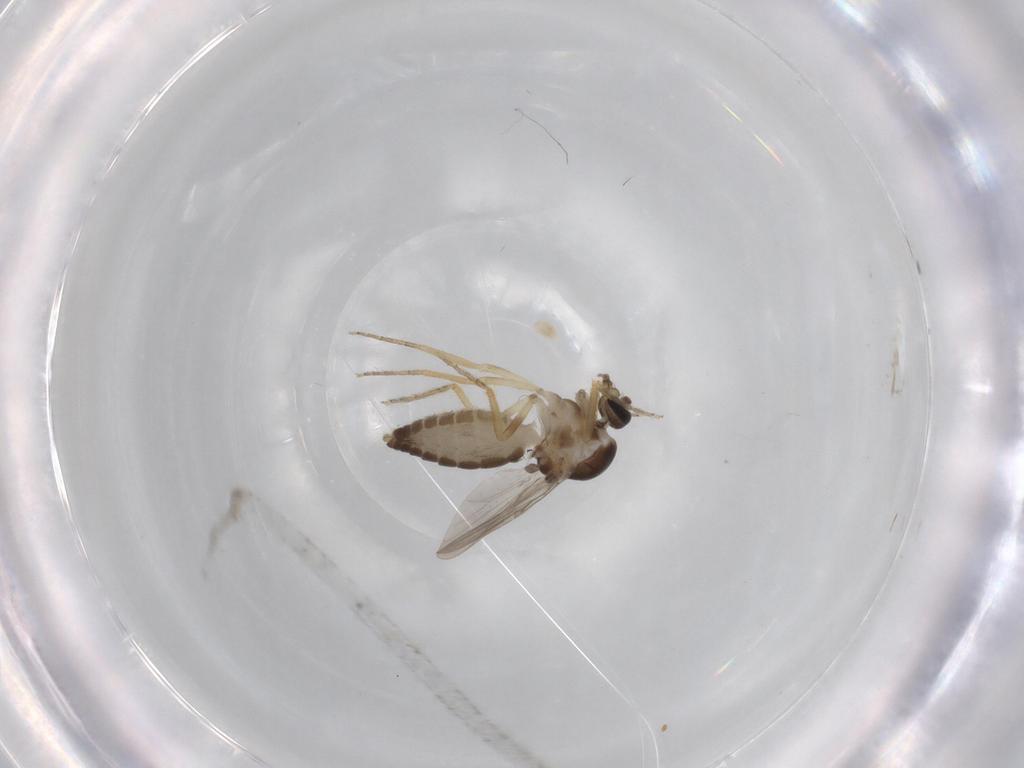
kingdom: Animalia
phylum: Arthropoda
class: Insecta
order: Diptera
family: Ceratopogonidae
